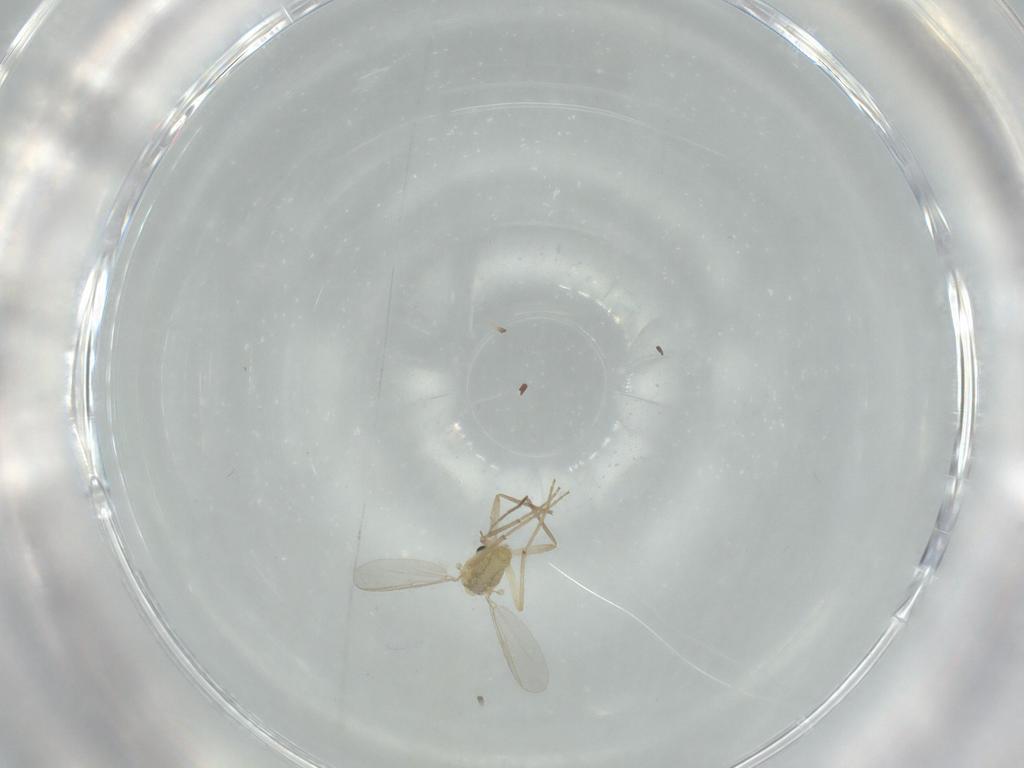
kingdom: Animalia
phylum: Arthropoda
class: Insecta
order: Diptera
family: Chironomidae
